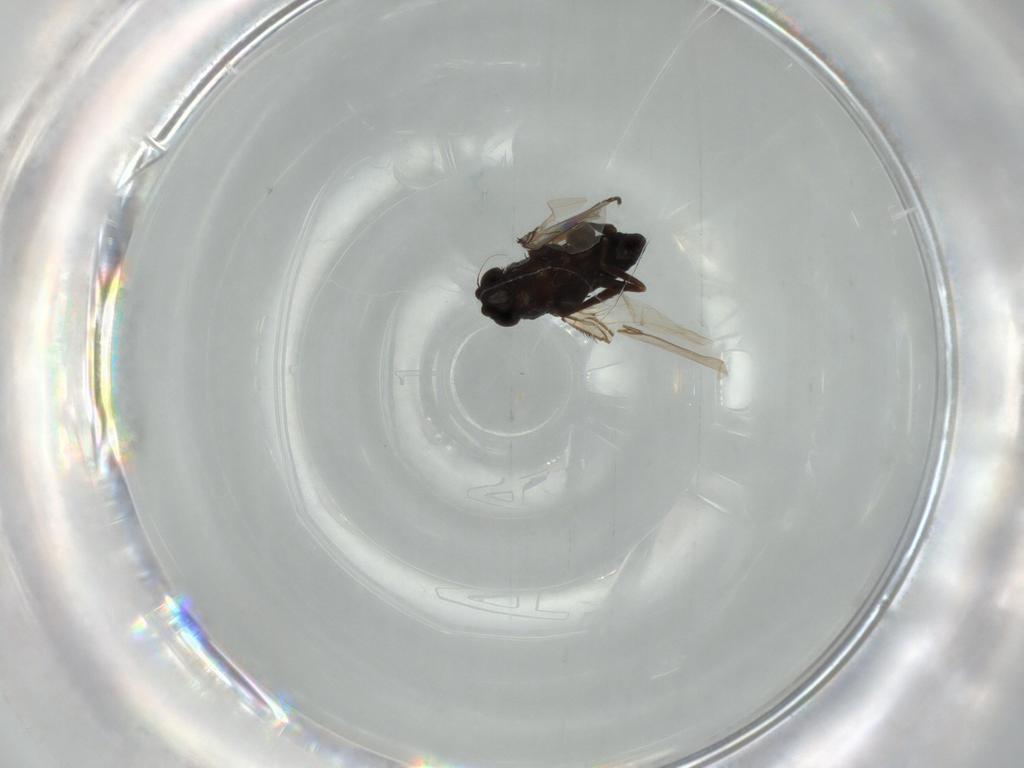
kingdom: Animalia
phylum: Arthropoda
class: Insecta
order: Diptera
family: Phoridae
